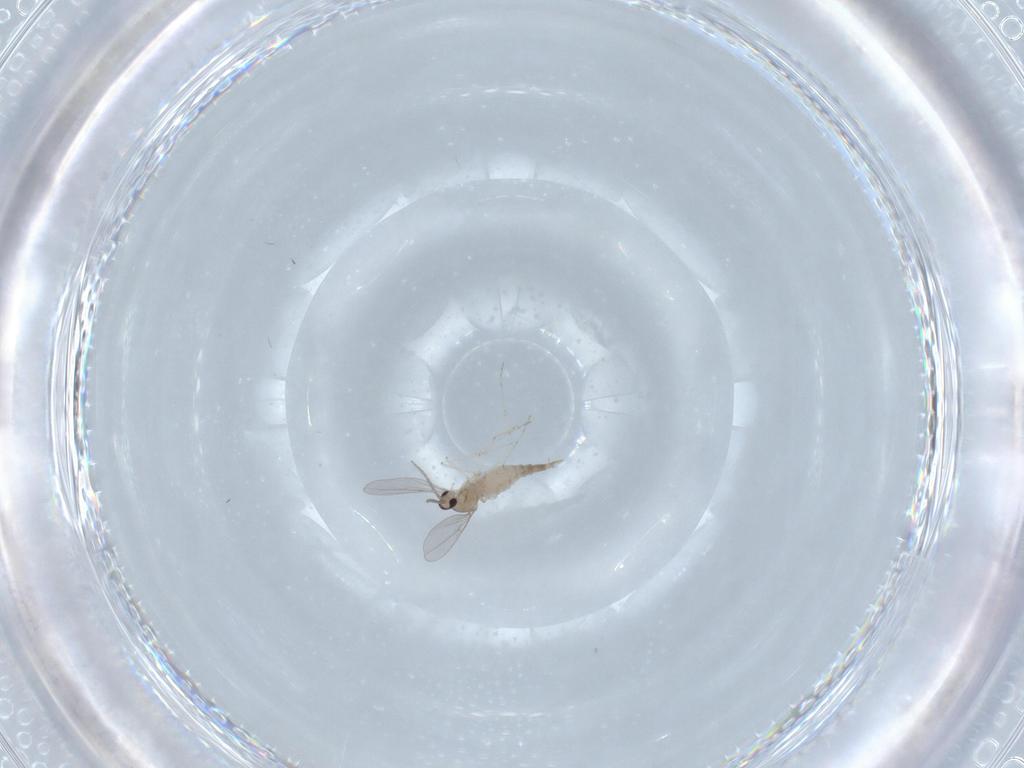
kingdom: Animalia
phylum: Arthropoda
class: Insecta
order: Diptera
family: Cecidomyiidae
